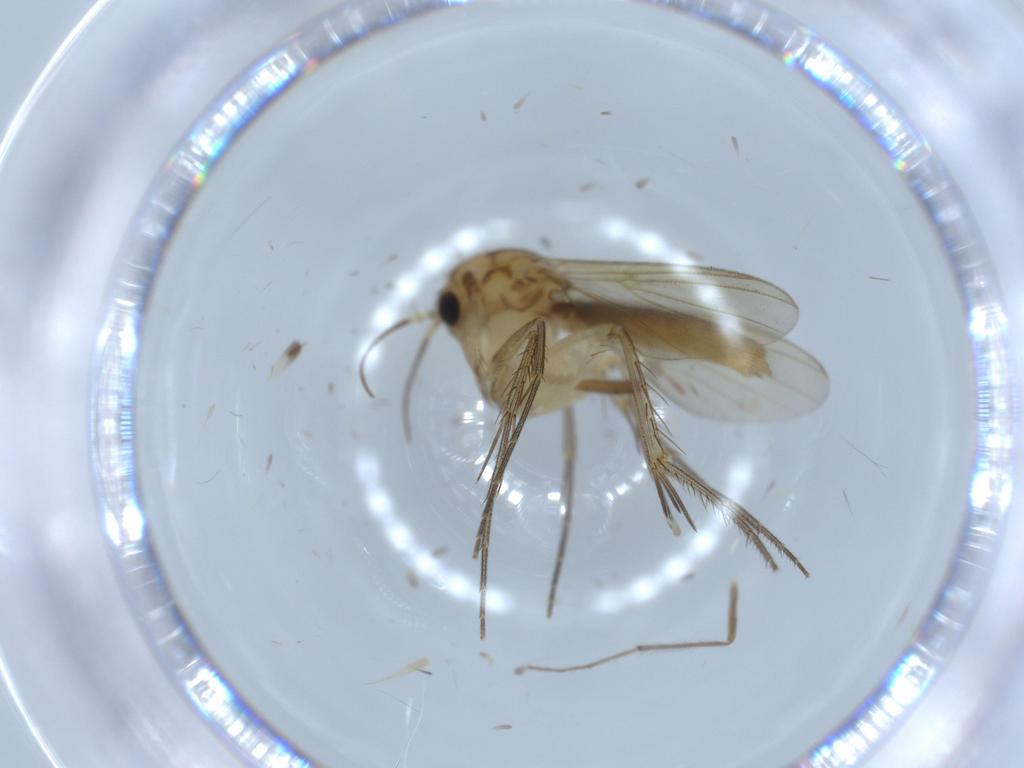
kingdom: Animalia
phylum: Arthropoda
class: Insecta
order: Diptera
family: Mycetophilidae
